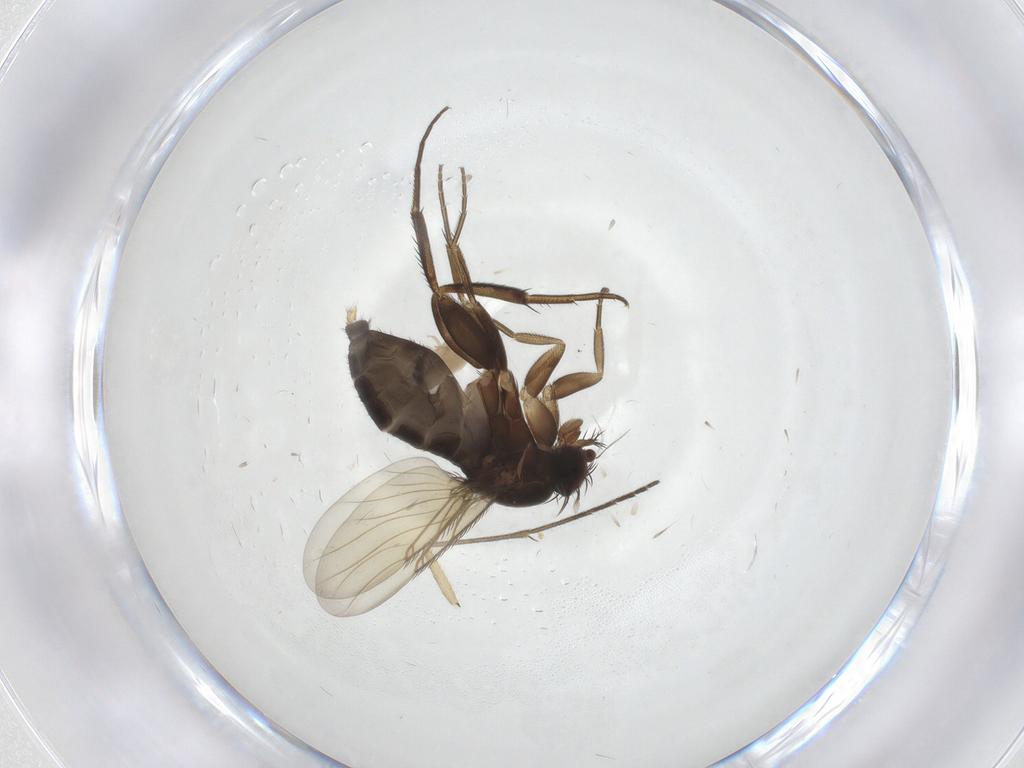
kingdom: Animalia
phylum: Arthropoda
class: Insecta
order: Diptera
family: Phoridae
